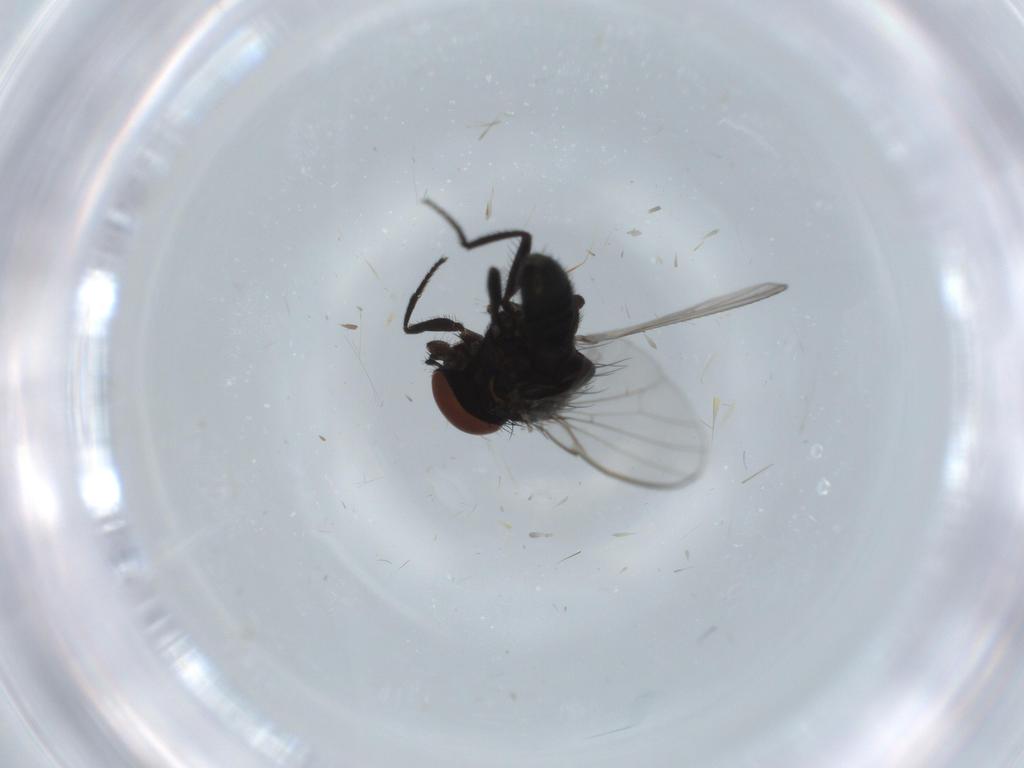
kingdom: Animalia
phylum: Arthropoda
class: Insecta
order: Diptera
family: Milichiidae
